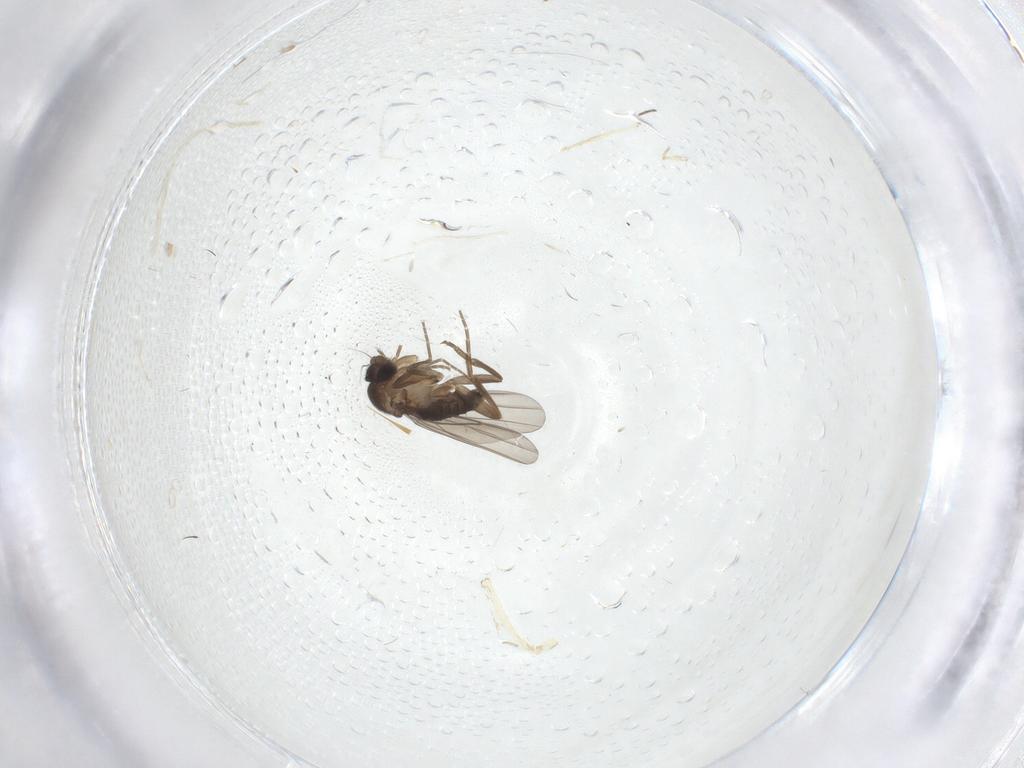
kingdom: Animalia
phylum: Arthropoda
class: Insecta
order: Diptera
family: Phoridae
